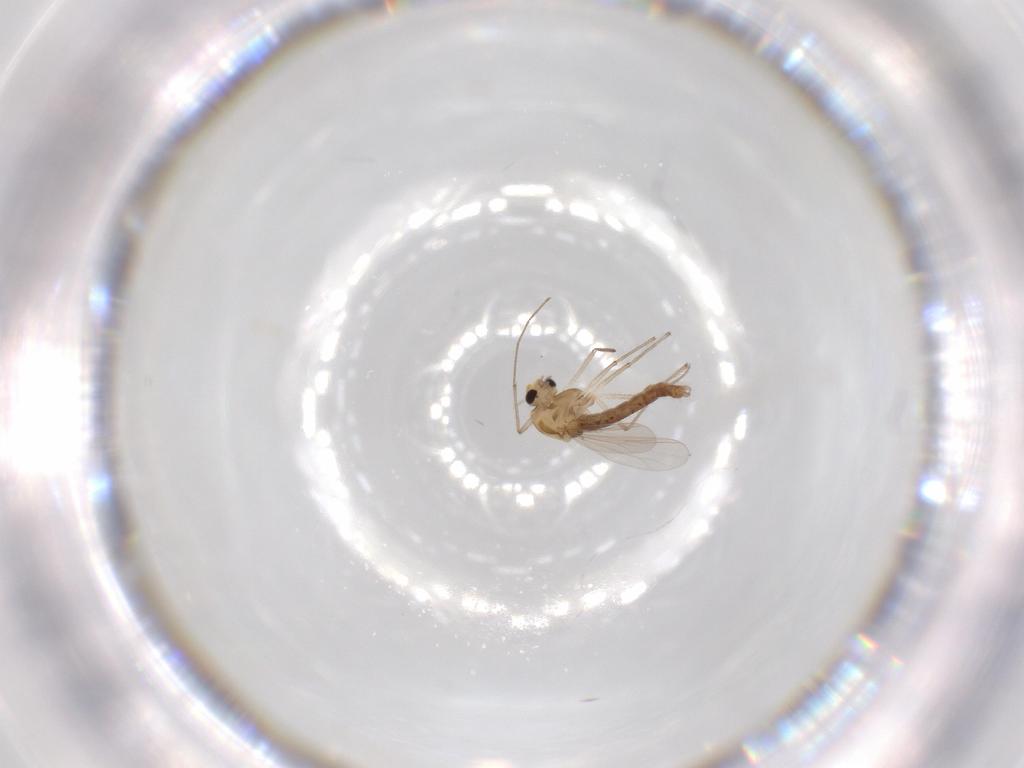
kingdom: Animalia
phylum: Arthropoda
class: Insecta
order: Diptera
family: Chironomidae
